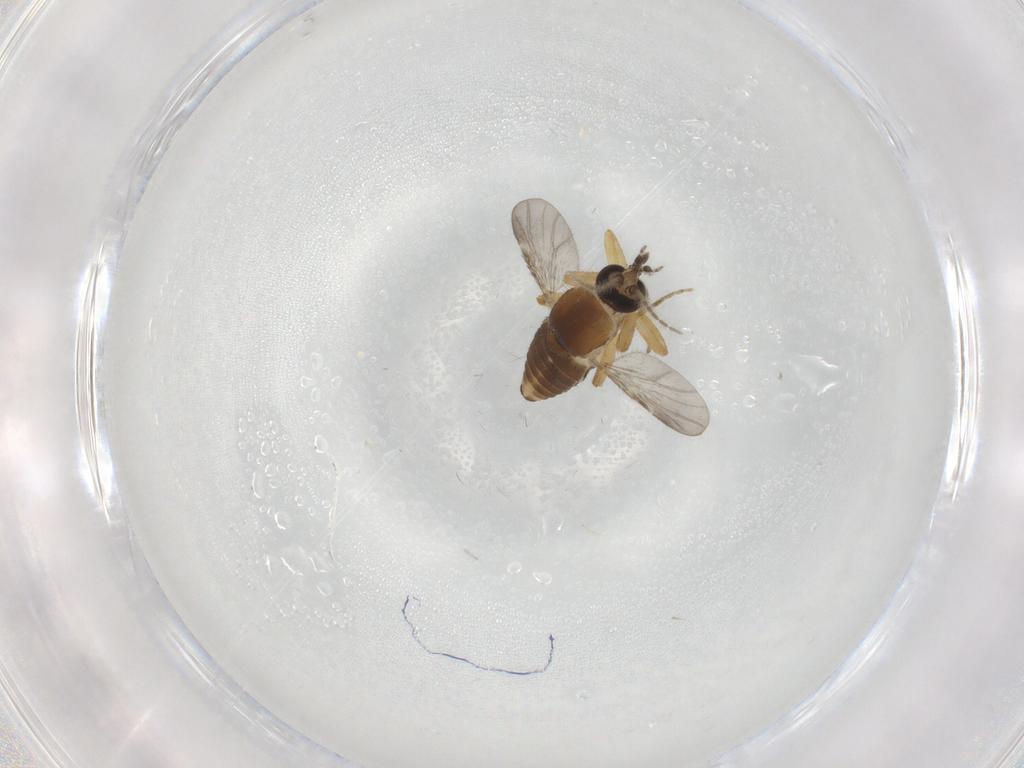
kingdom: Animalia
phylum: Arthropoda
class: Insecta
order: Diptera
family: Ceratopogonidae
